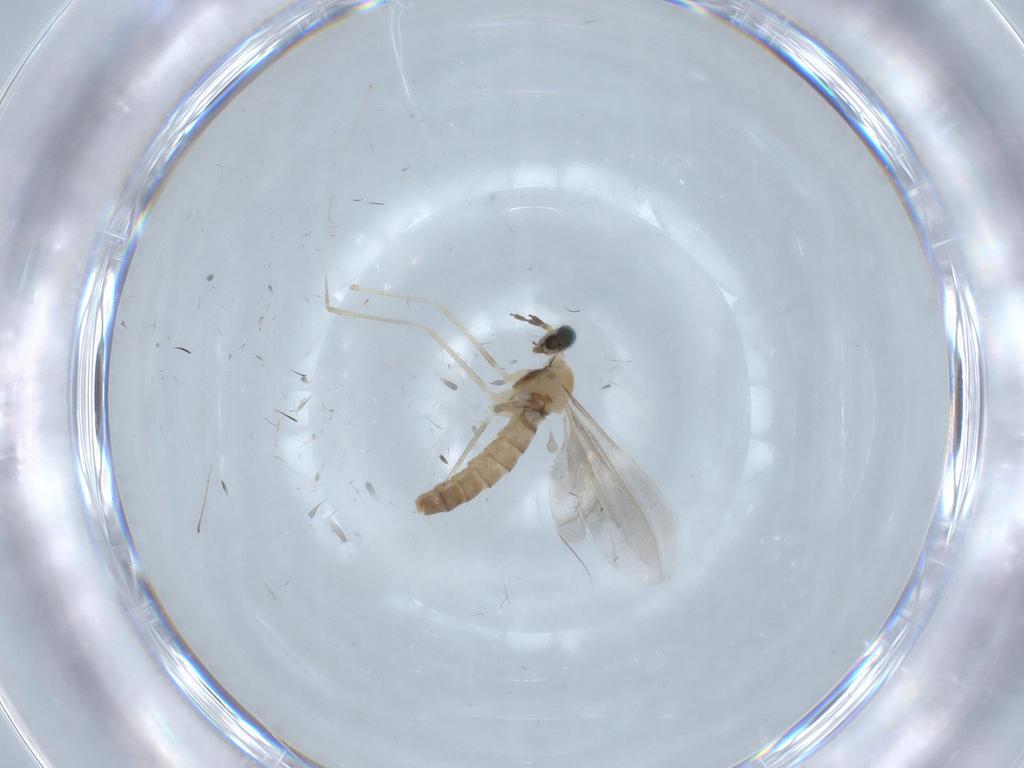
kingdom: Animalia
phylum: Arthropoda
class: Insecta
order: Diptera
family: Cecidomyiidae
